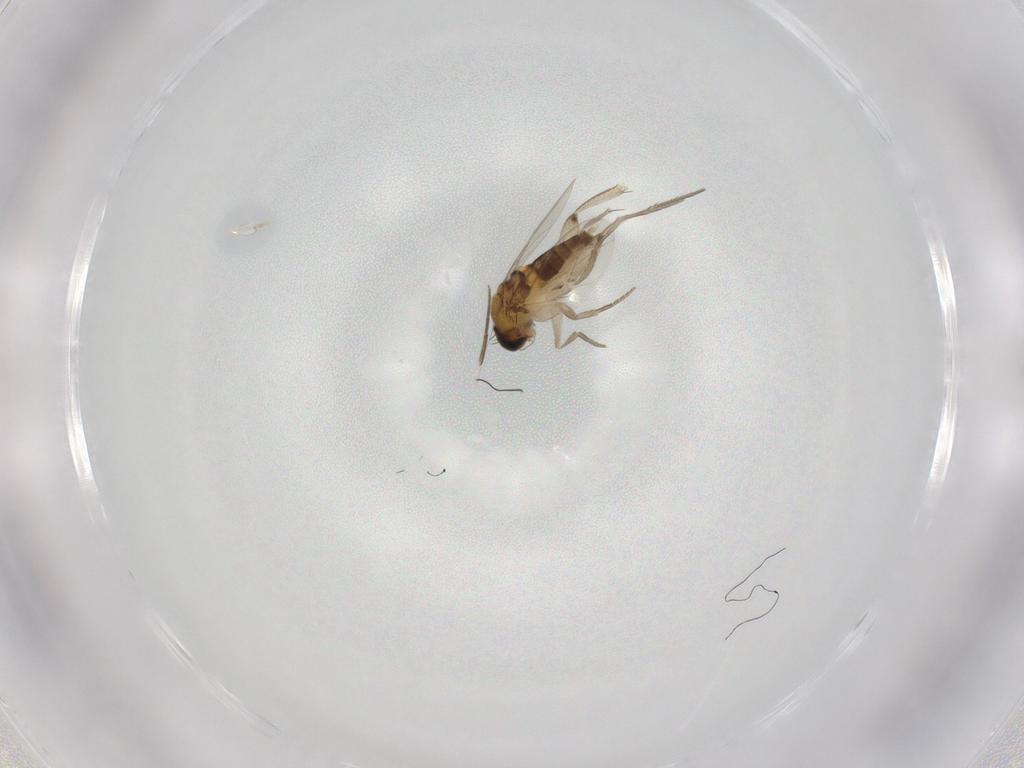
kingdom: Animalia
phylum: Arthropoda
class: Insecta
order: Diptera
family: Phoridae
